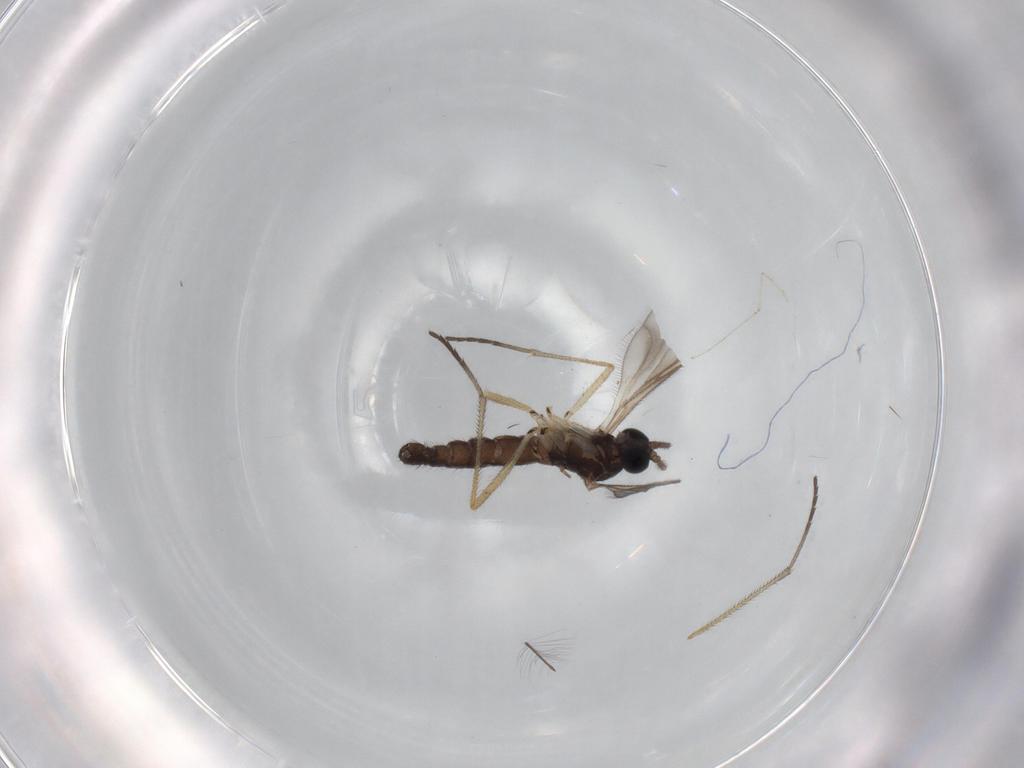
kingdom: Animalia
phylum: Arthropoda
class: Insecta
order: Diptera
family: Sciaridae
